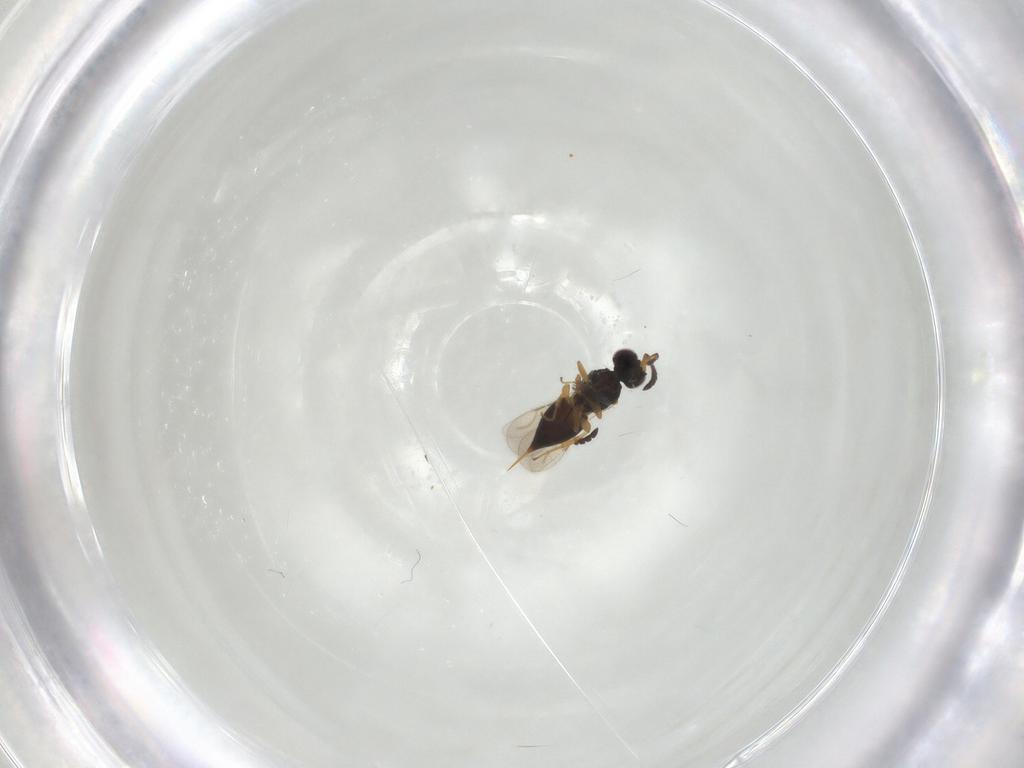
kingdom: Animalia
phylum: Arthropoda
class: Insecta
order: Hymenoptera
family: Ceraphronidae
